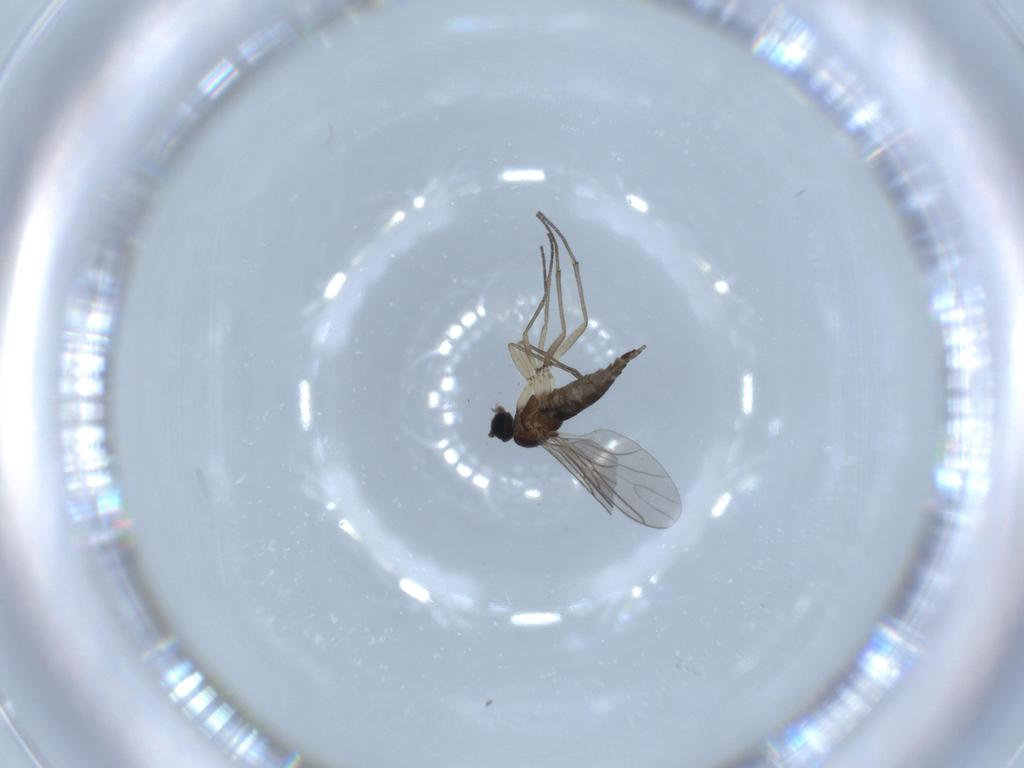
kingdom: Animalia
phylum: Arthropoda
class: Insecta
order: Diptera
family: Sciaridae
